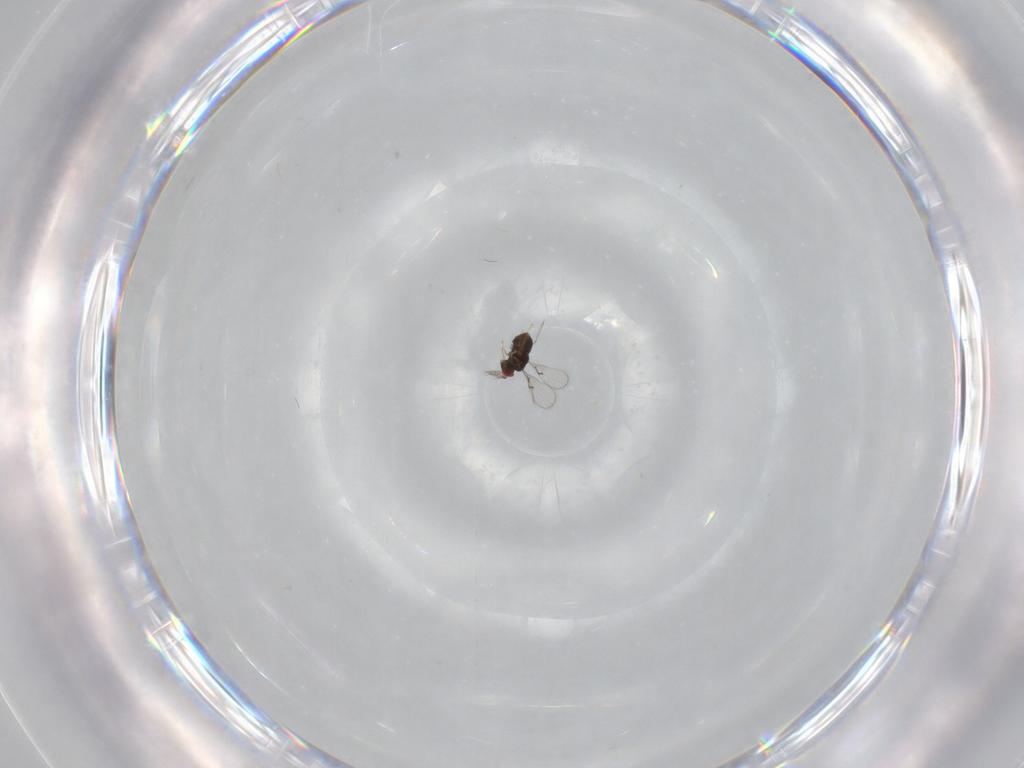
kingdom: Animalia
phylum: Arthropoda
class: Insecta
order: Hymenoptera
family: Trichogrammatidae
